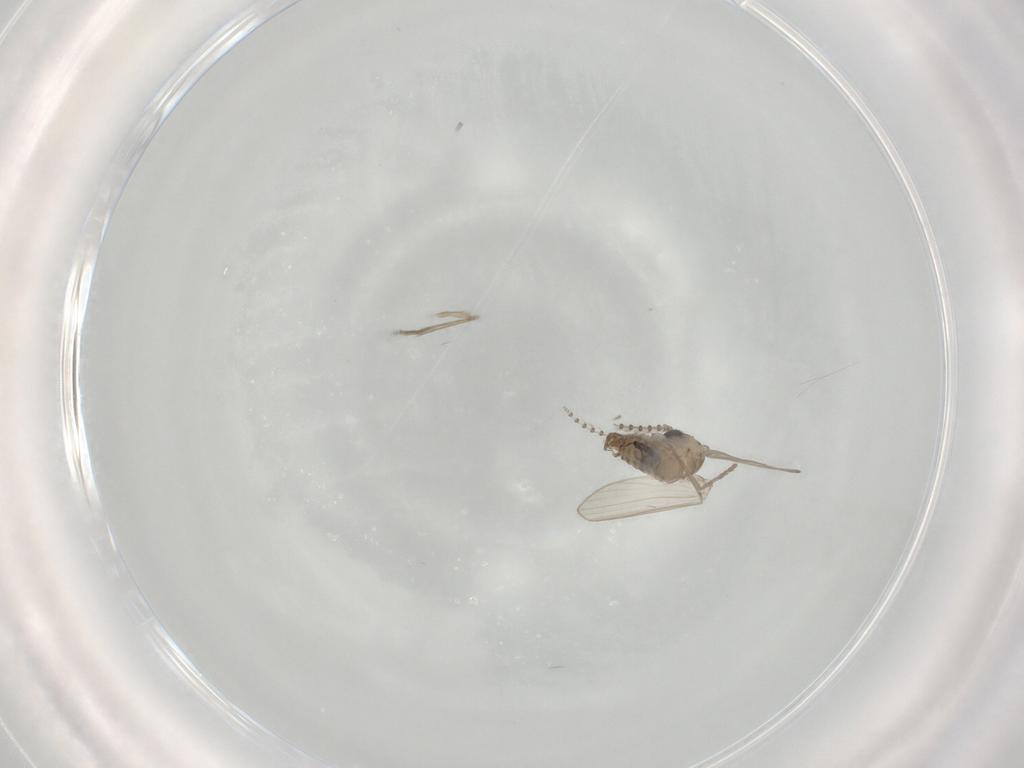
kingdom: Animalia
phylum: Arthropoda
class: Insecta
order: Diptera
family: Psychodidae
